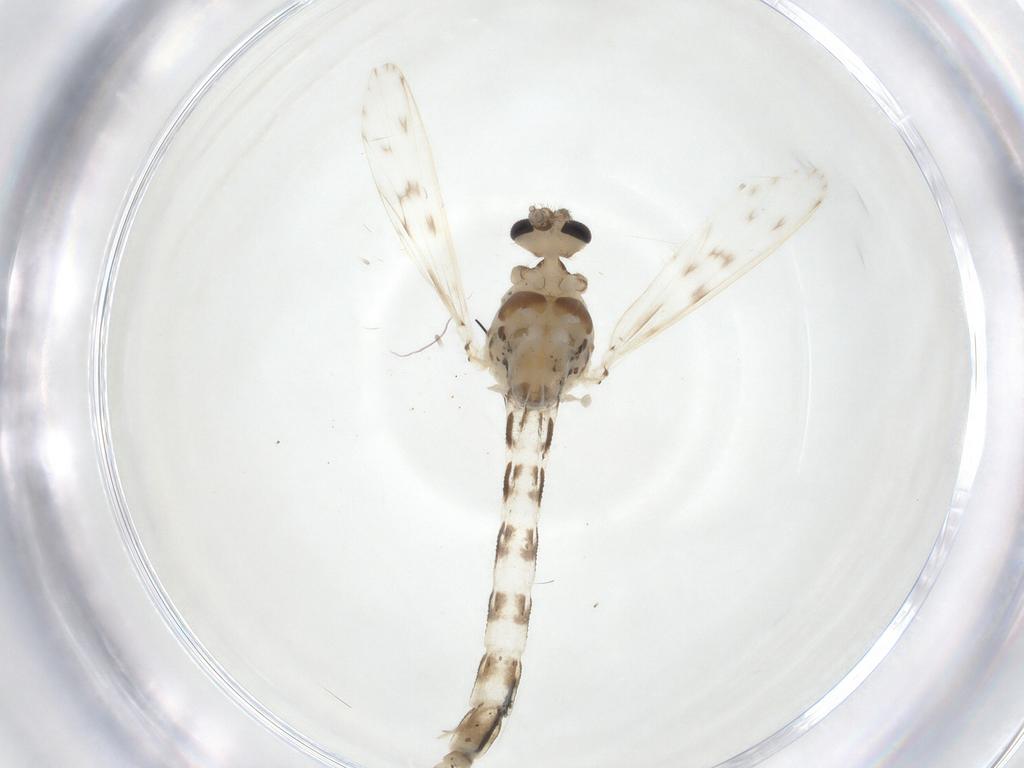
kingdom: Animalia
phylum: Arthropoda
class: Insecta
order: Diptera
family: Chaoboridae
